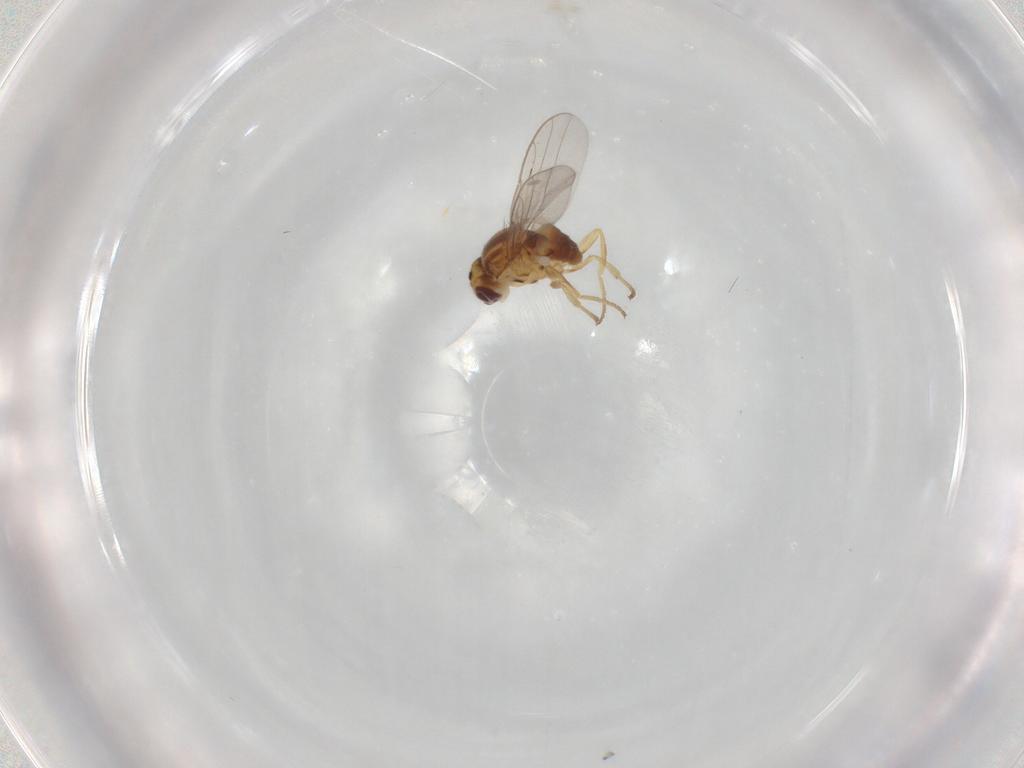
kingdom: Animalia
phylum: Arthropoda
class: Insecta
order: Diptera
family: Chloropidae
